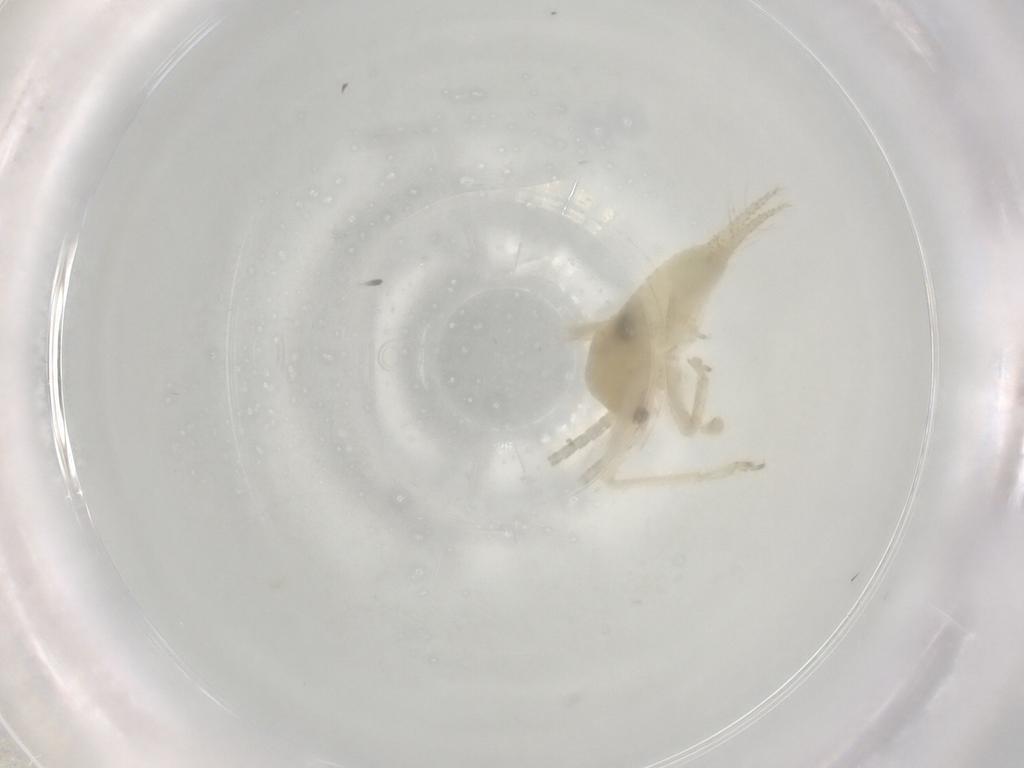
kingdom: Animalia
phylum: Arthropoda
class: Insecta
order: Orthoptera
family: Trigonidiidae
